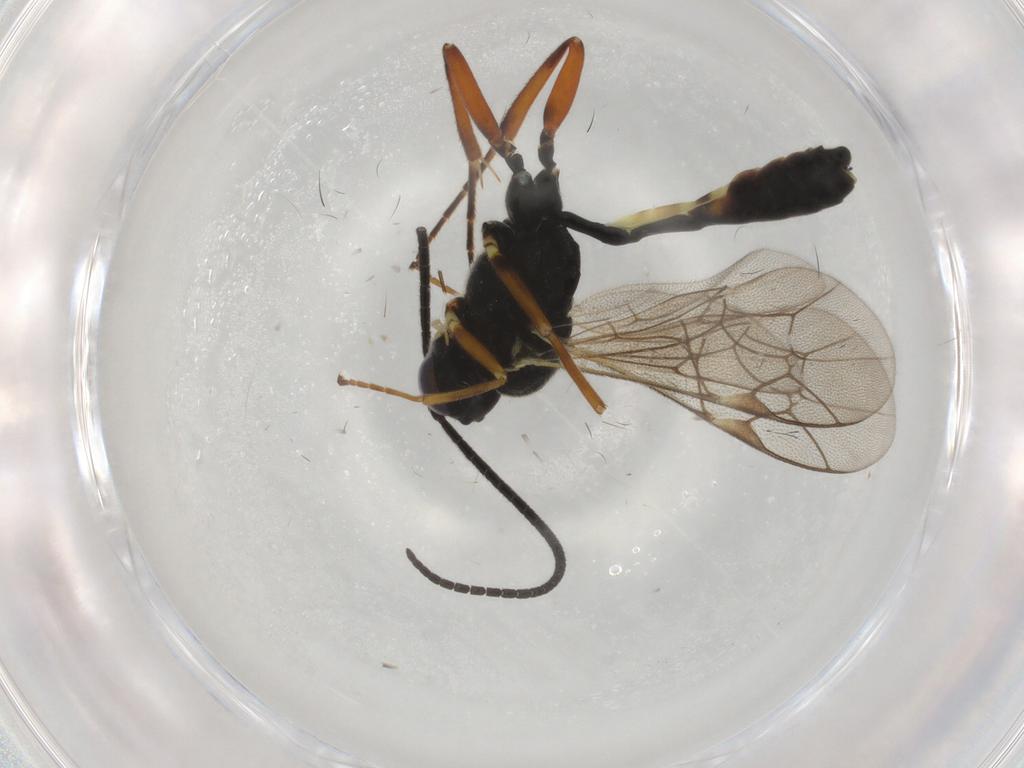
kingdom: Animalia
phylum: Arthropoda
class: Insecta
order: Hymenoptera
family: Ichneumonidae
